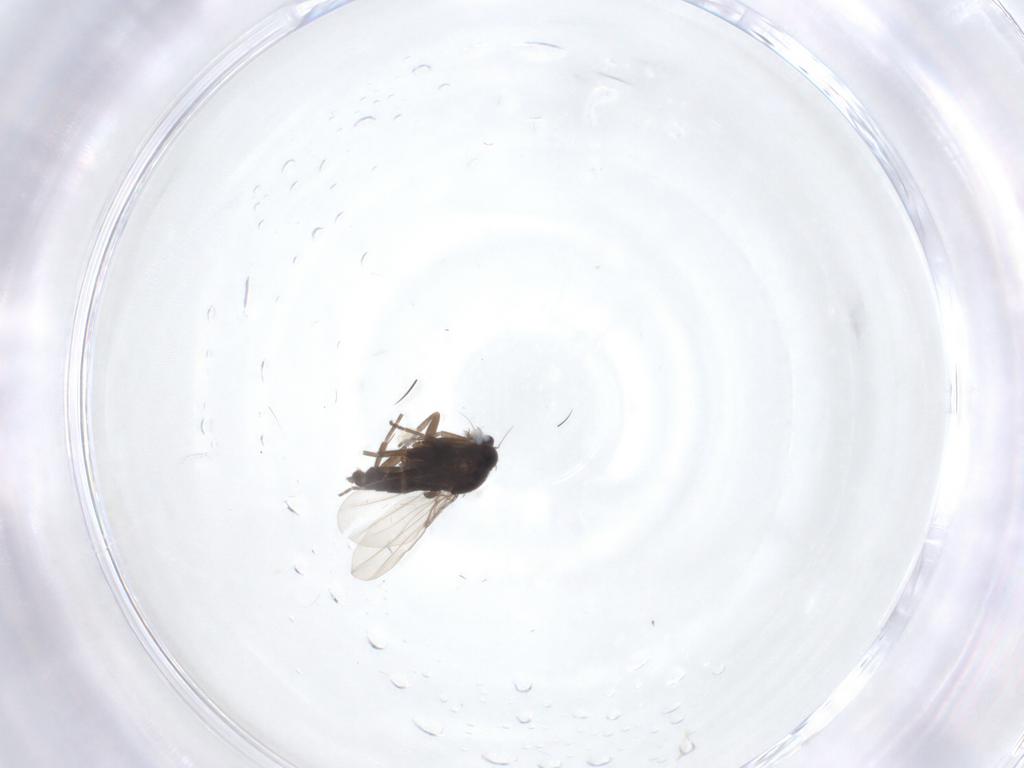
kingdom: Animalia
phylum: Arthropoda
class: Insecta
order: Diptera
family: Phoridae
